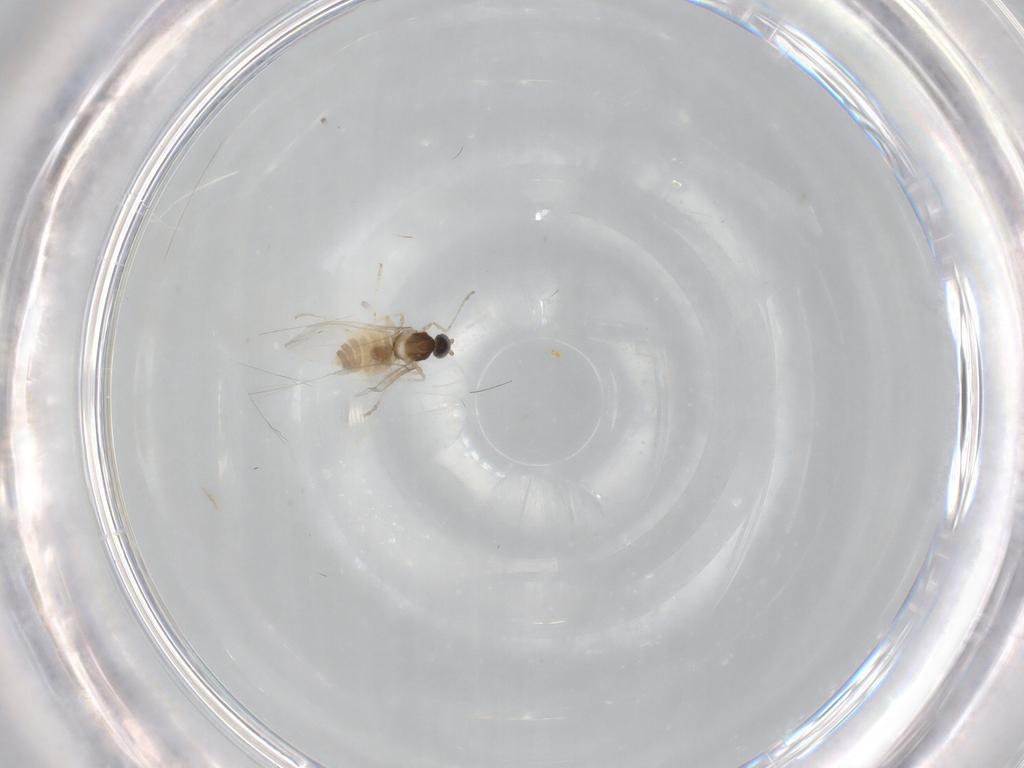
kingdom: Animalia
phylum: Arthropoda
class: Insecta
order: Diptera
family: Cecidomyiidae
